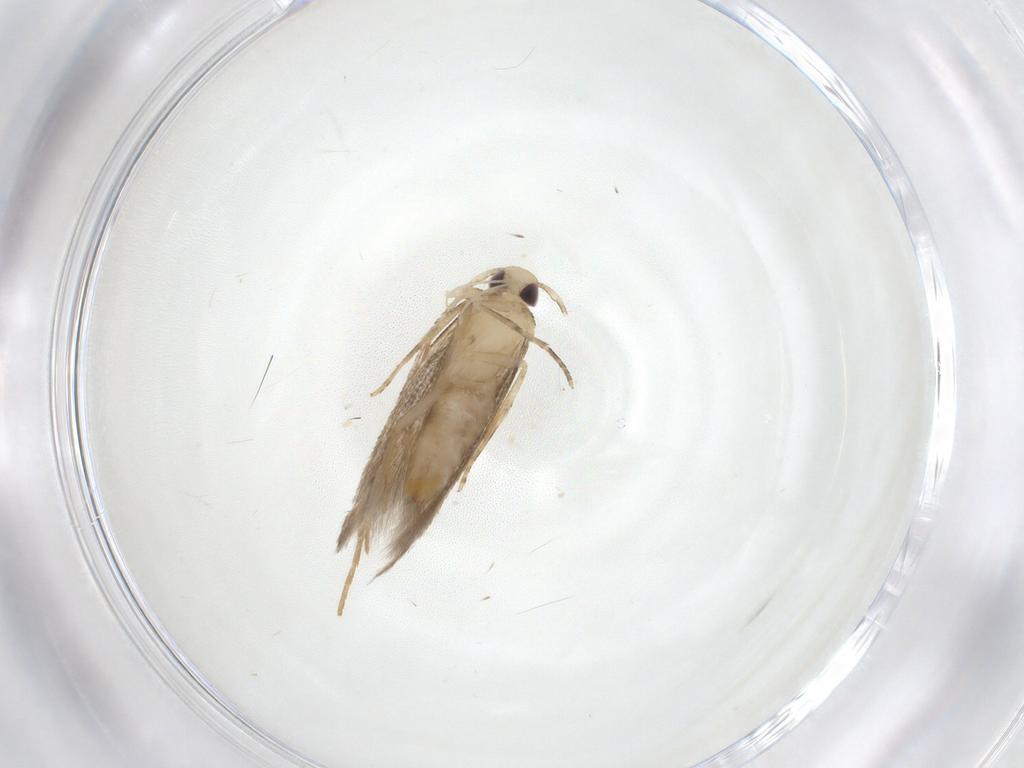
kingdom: Animalia
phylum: Arthropoda
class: Insecta
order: Lepidoptera
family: Cosmopterigidae
